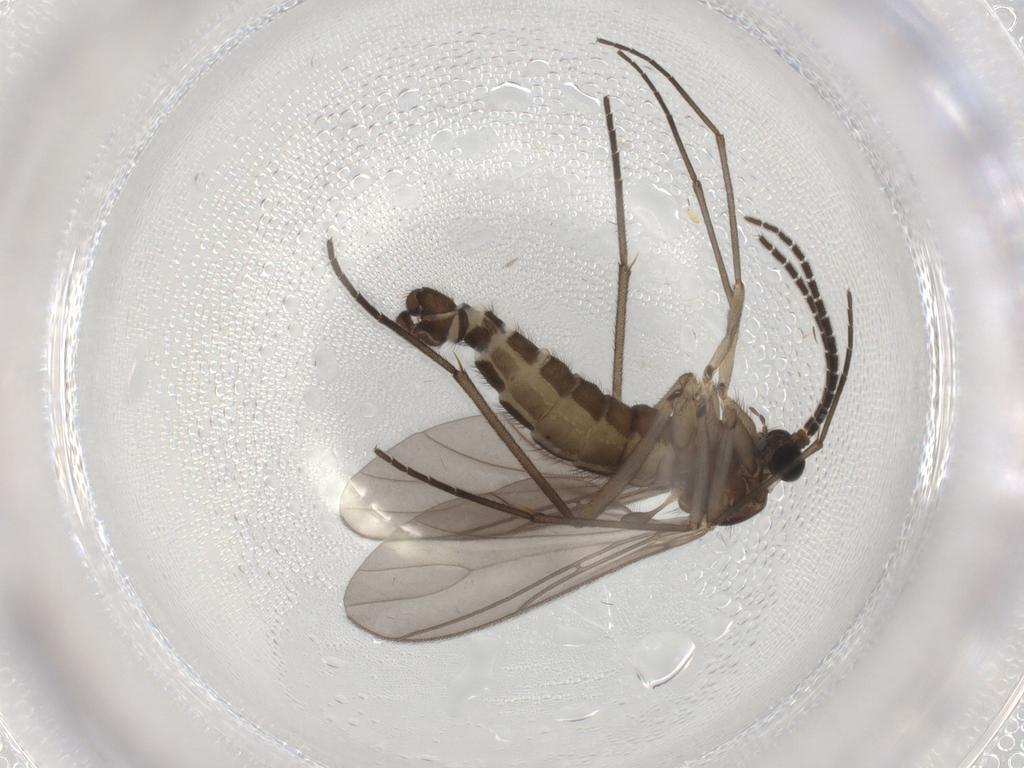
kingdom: Animalia
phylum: Arthropoda
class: Insecta
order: Diptera
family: Sciaridae
